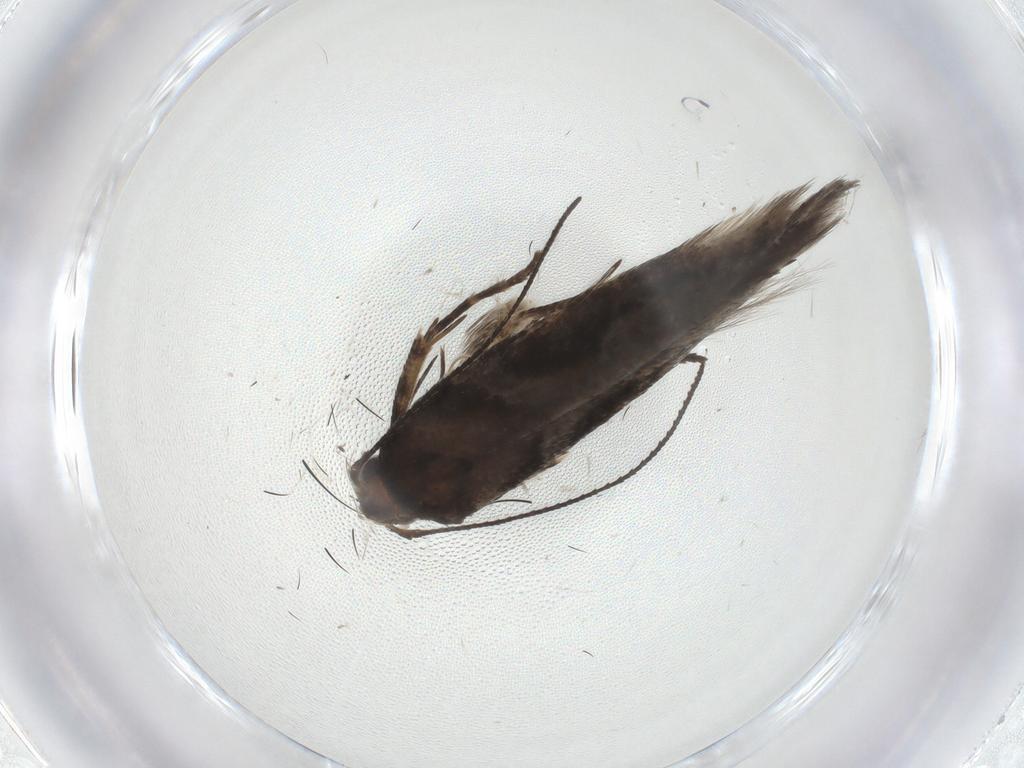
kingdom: Animalia
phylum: Arthropoda
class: Insecta
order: Lepidoptera
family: Gelechiidae
